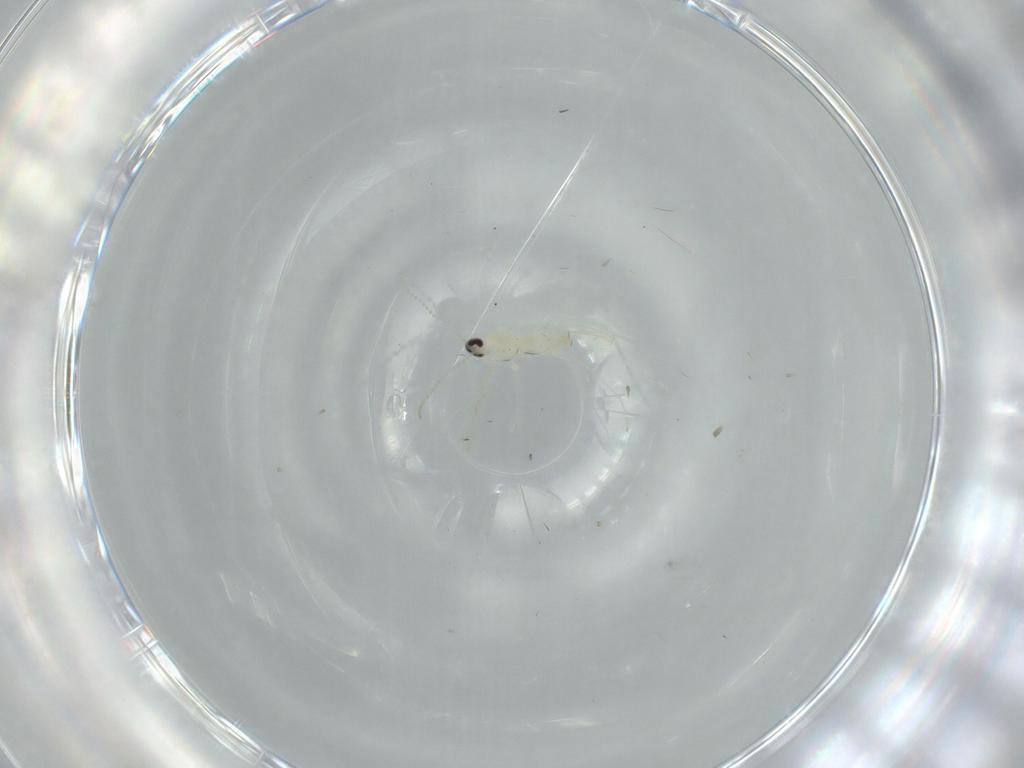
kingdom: Animalia
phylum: Arthropoda
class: Insecta
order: Diptera
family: Cecidomyiidae
